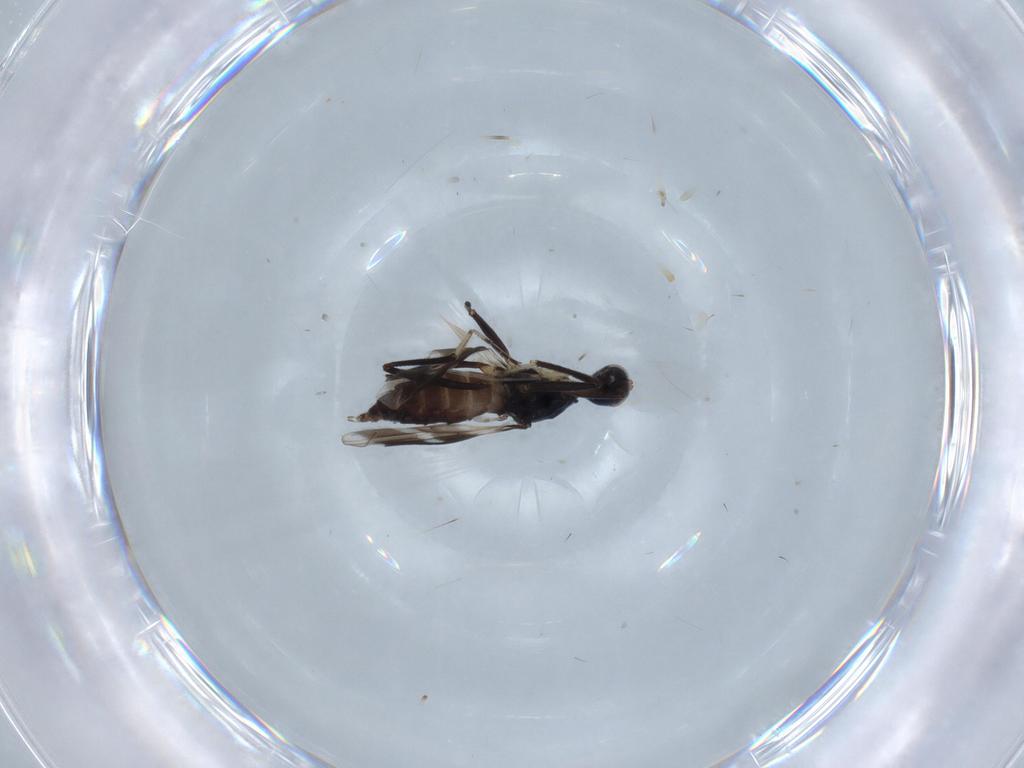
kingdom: Animalia
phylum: Arthropoda
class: Insecta
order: Diptera
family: Hybotidae
